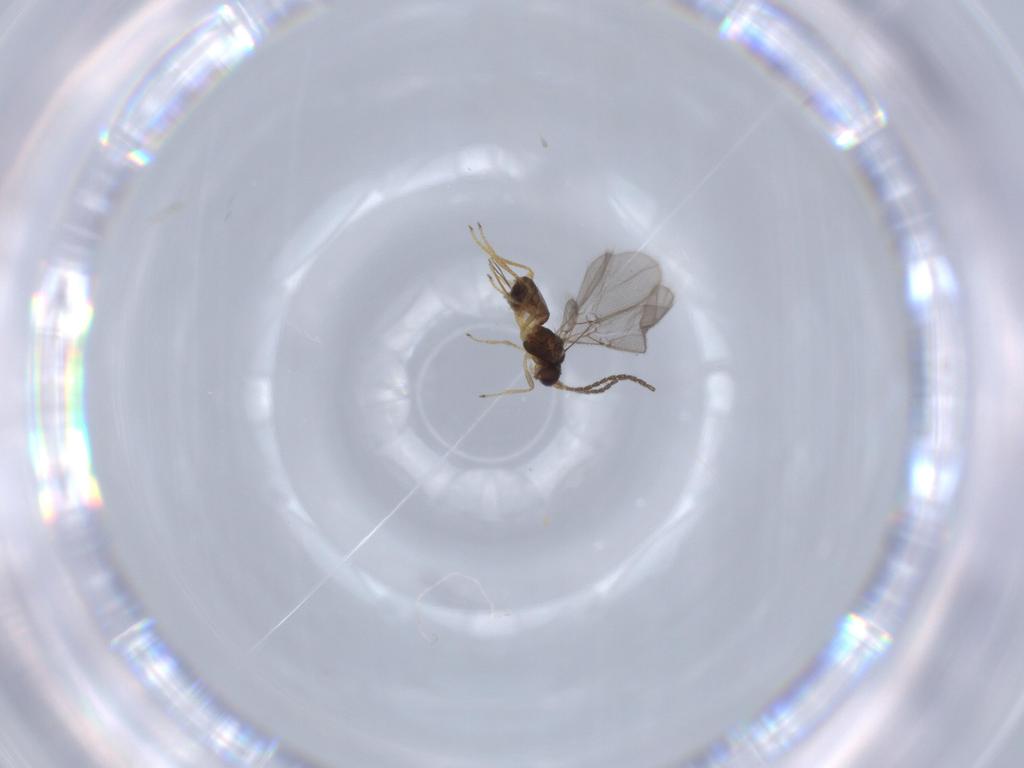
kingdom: Animalia
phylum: Arthropoda
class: Insecta
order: Hymenoptera
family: Braconidae
